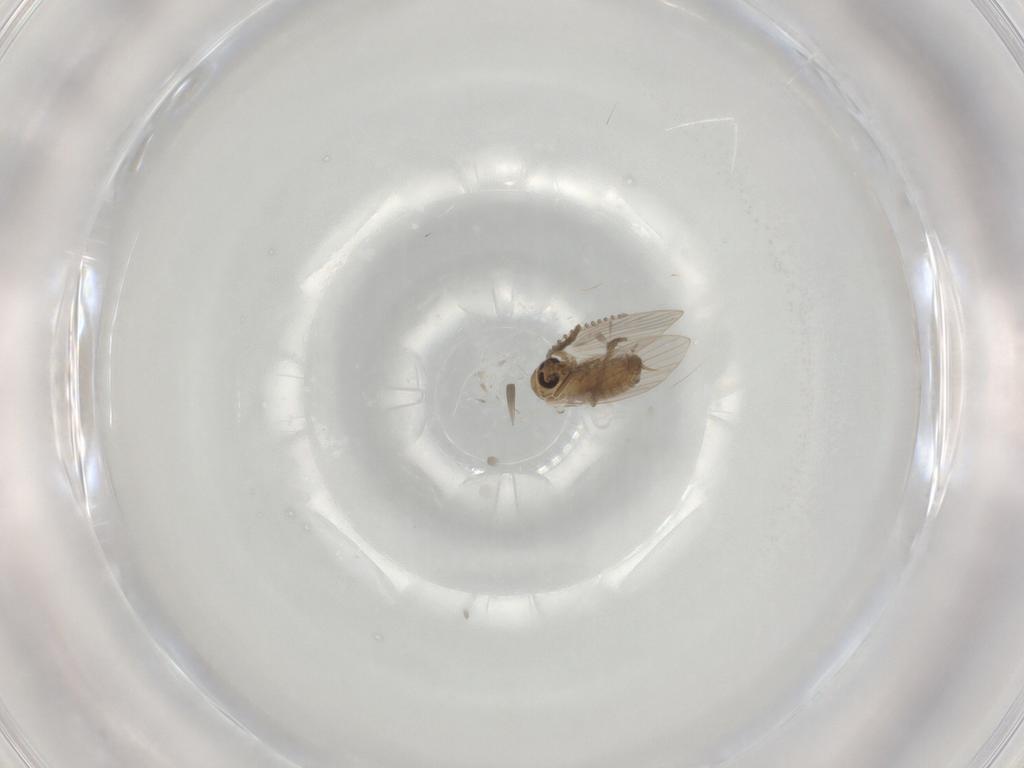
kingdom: Animalia
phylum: Arthropoda
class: Insecta
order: Diptera
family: Psychodidae
